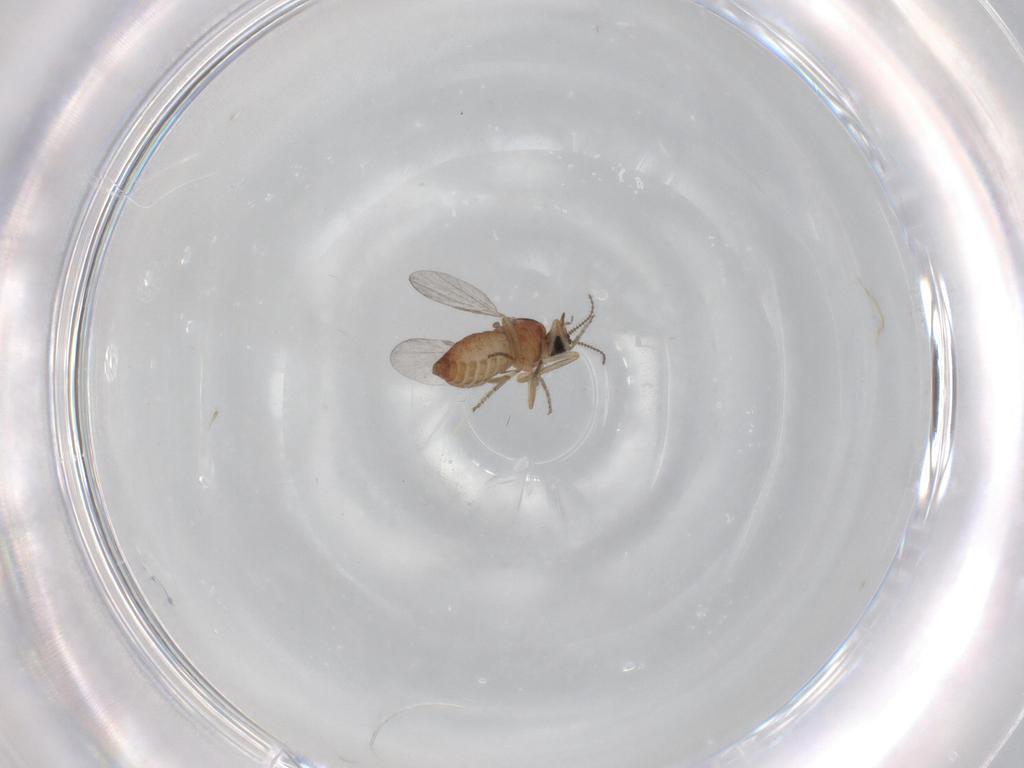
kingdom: Animalia
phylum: Arthropoda
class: Insecta
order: Diptera
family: Ceratopogonidae
